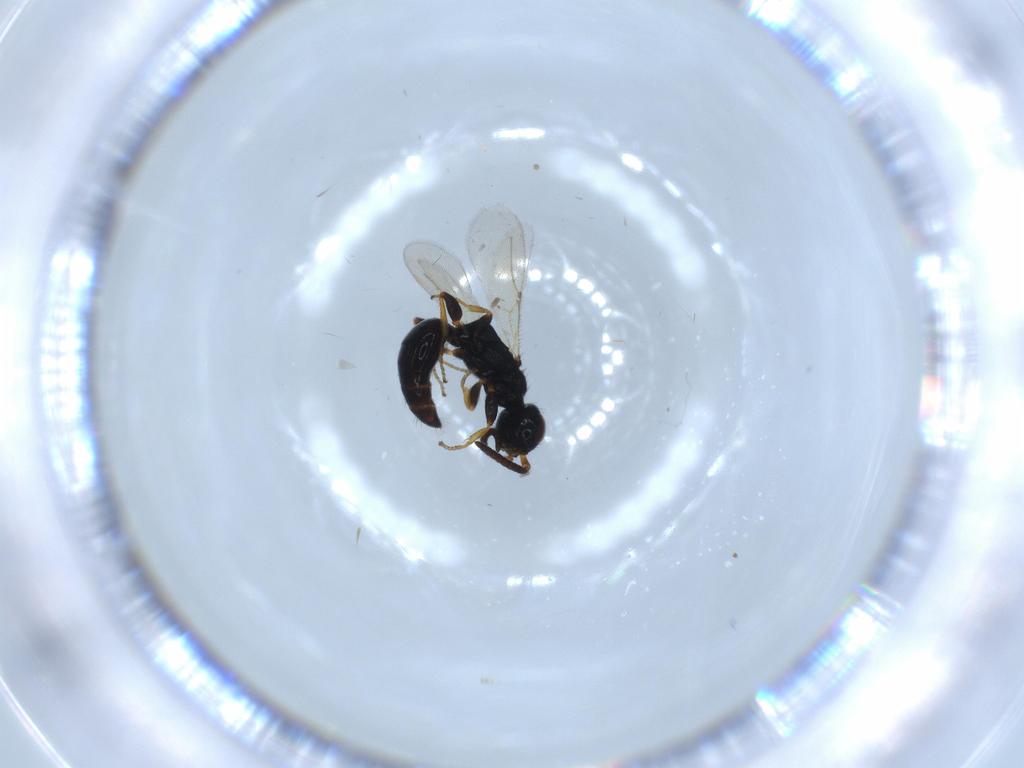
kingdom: Animalia
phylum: Arthropoda
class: Insecta
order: Hymenoptera
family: Bethylidae
